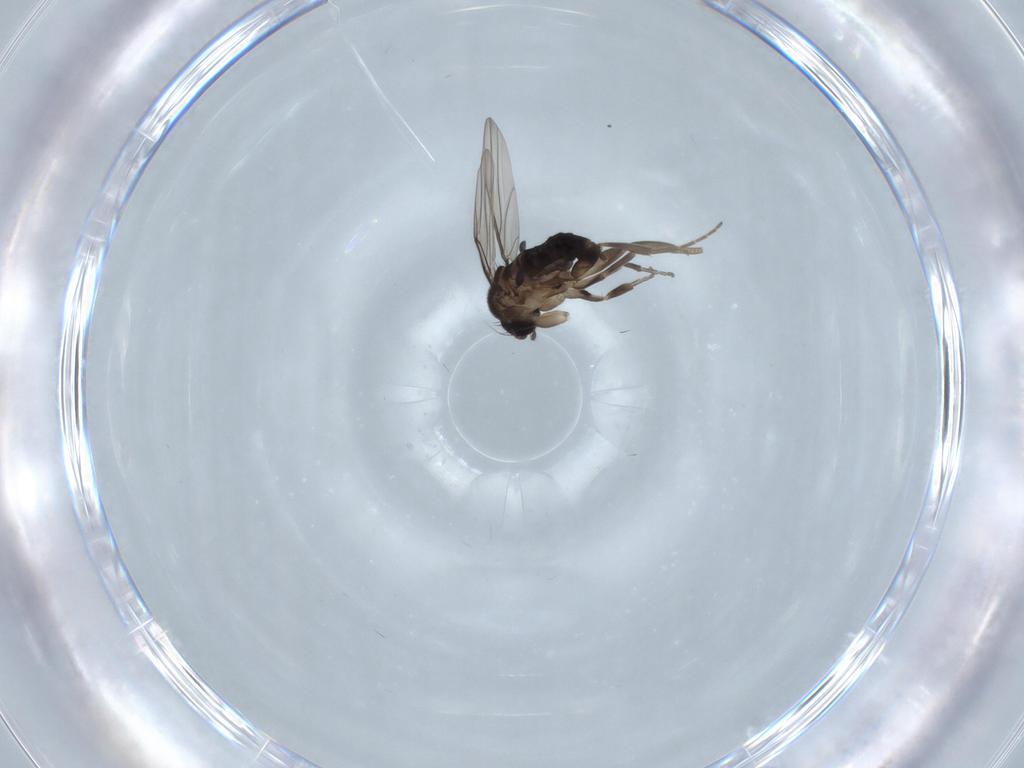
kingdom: Animalia
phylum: Arthropoda
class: Insecta
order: Diptera
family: Phoridae
